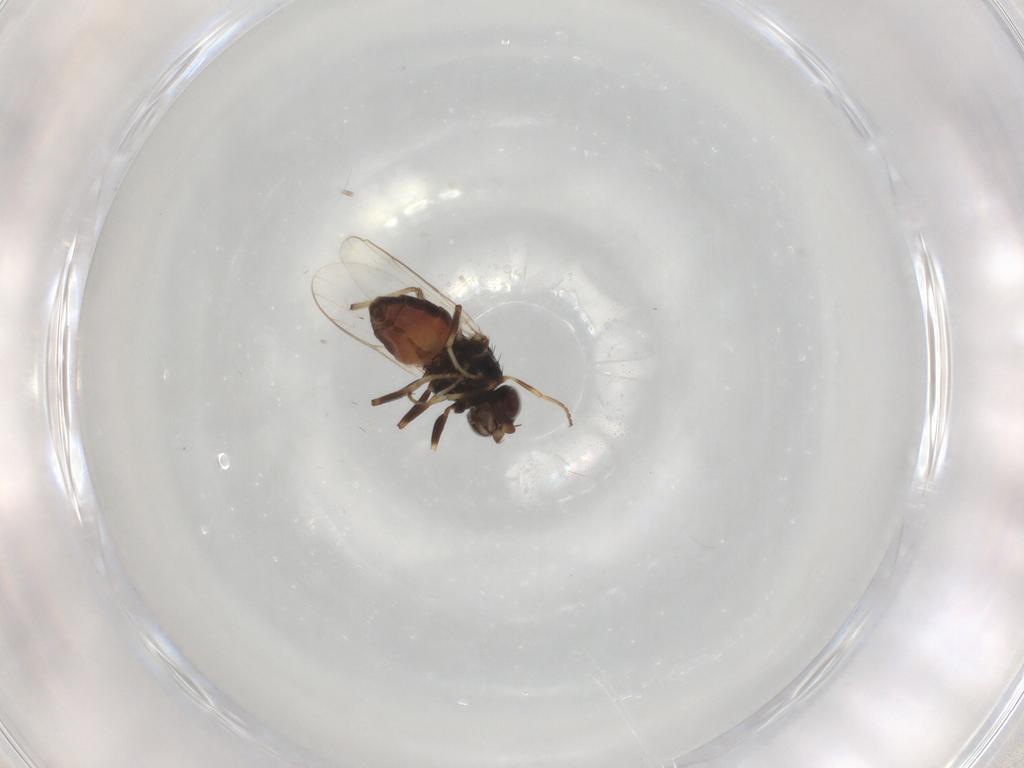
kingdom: Animalia
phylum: Arthropoda
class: Insecta
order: Diptera
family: Chloropidae
